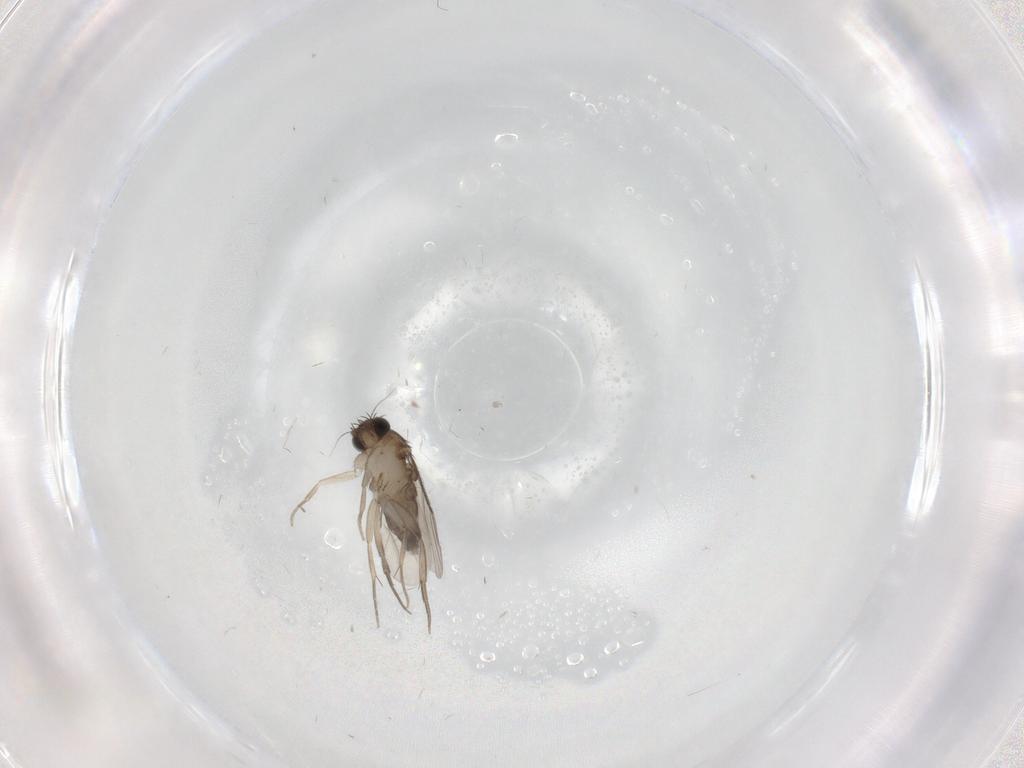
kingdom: Animalia
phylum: Arthropoda
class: Insecta
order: Diptera
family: Phoridae
